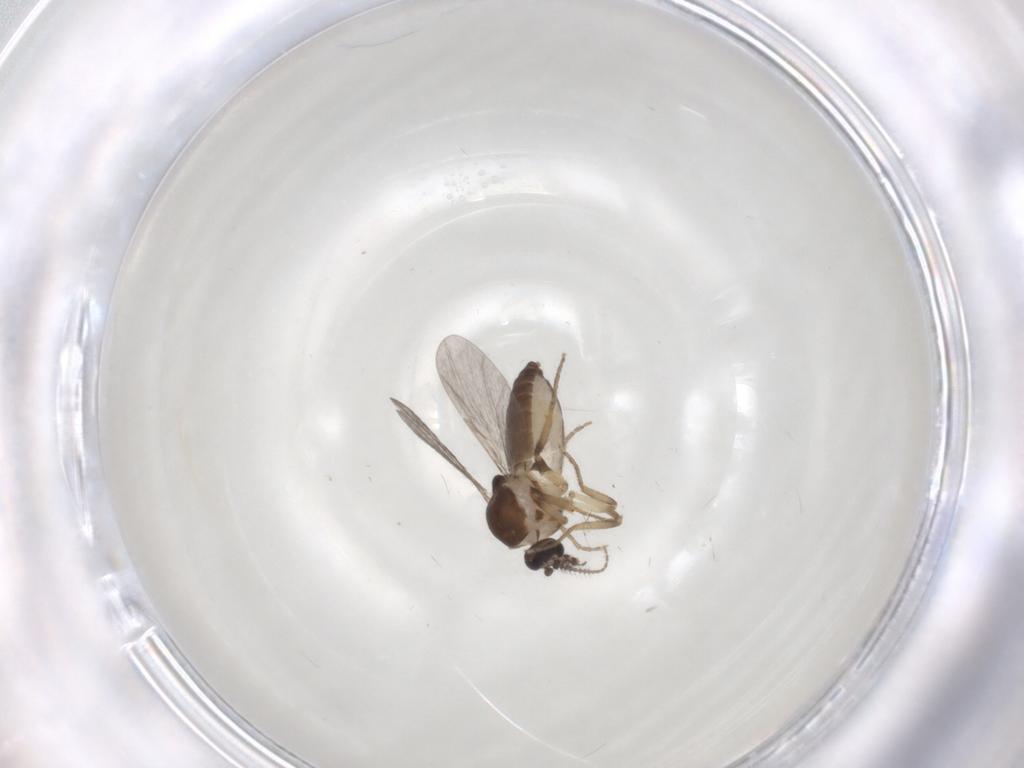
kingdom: Animalia
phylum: Arthropoda
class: Insecta
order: Diptera
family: Ceratopogonidae
